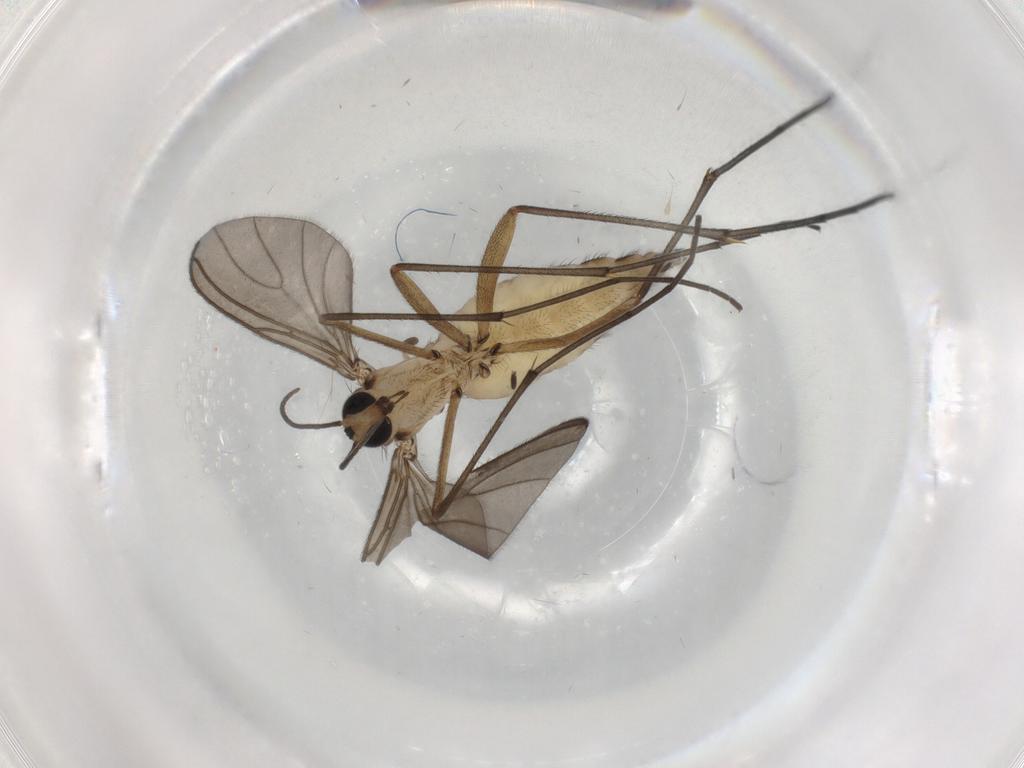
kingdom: Animalia
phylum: Arthropoda
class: Insecta
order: Diptera
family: Sciaridae
